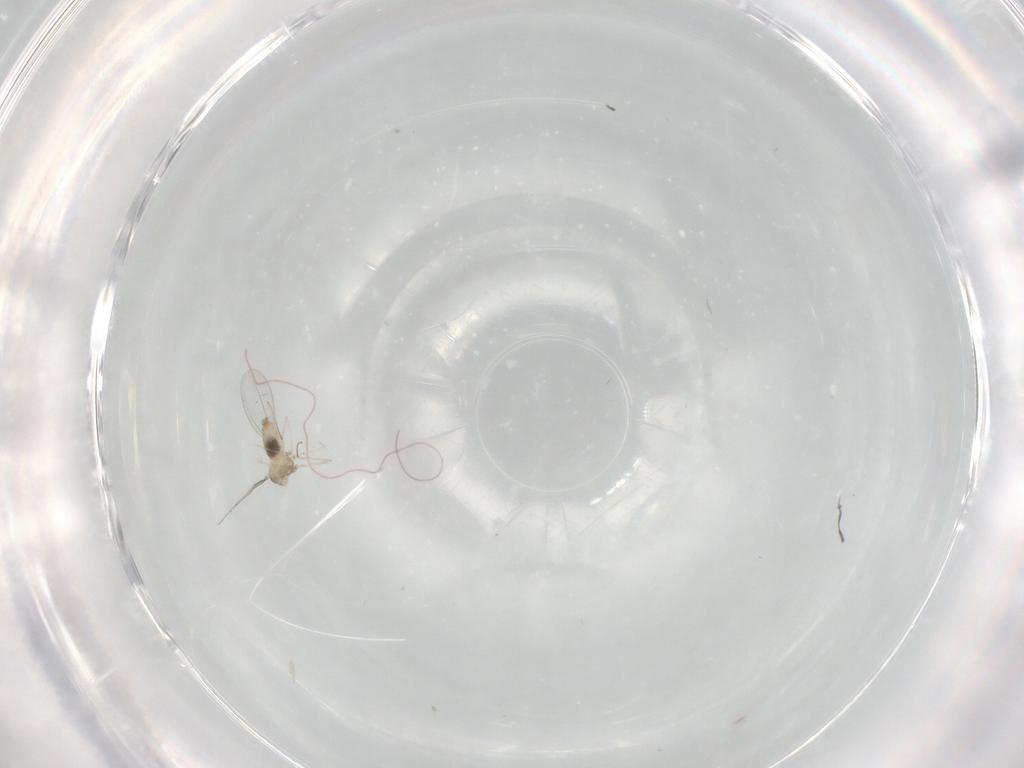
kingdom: Animalia
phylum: Arthropoda
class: Insecta
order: Diptera
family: Cecidomyiidae
